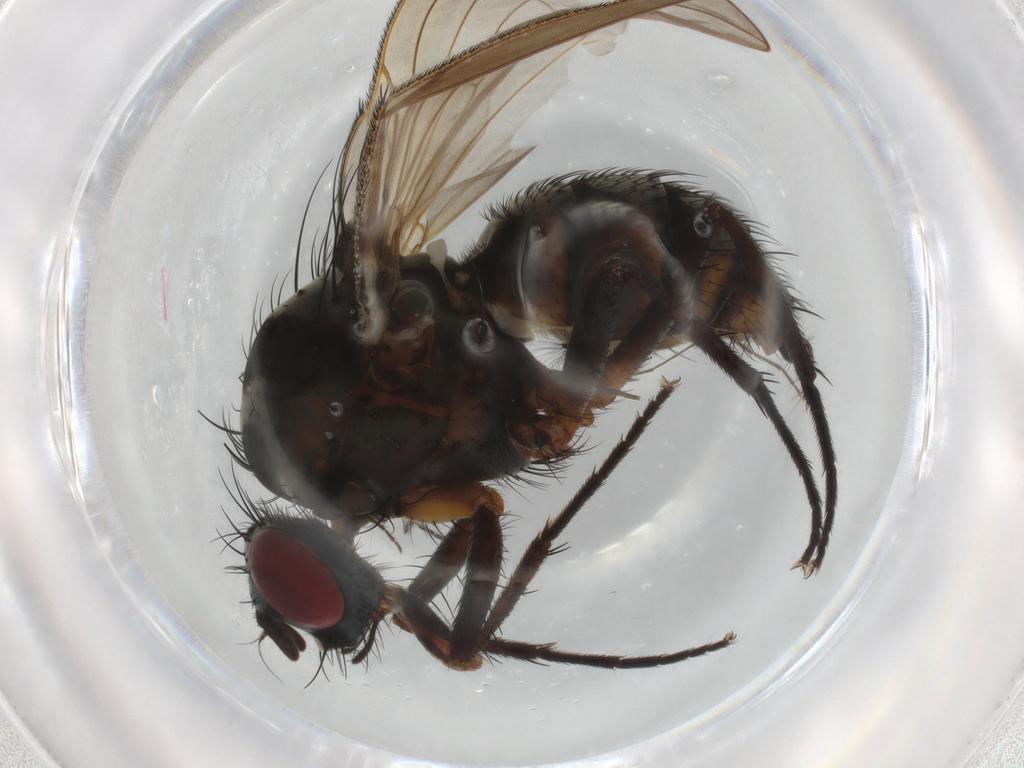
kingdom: Animalia
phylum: Arthropoda
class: Insecta
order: Diptera
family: Sciaridae
